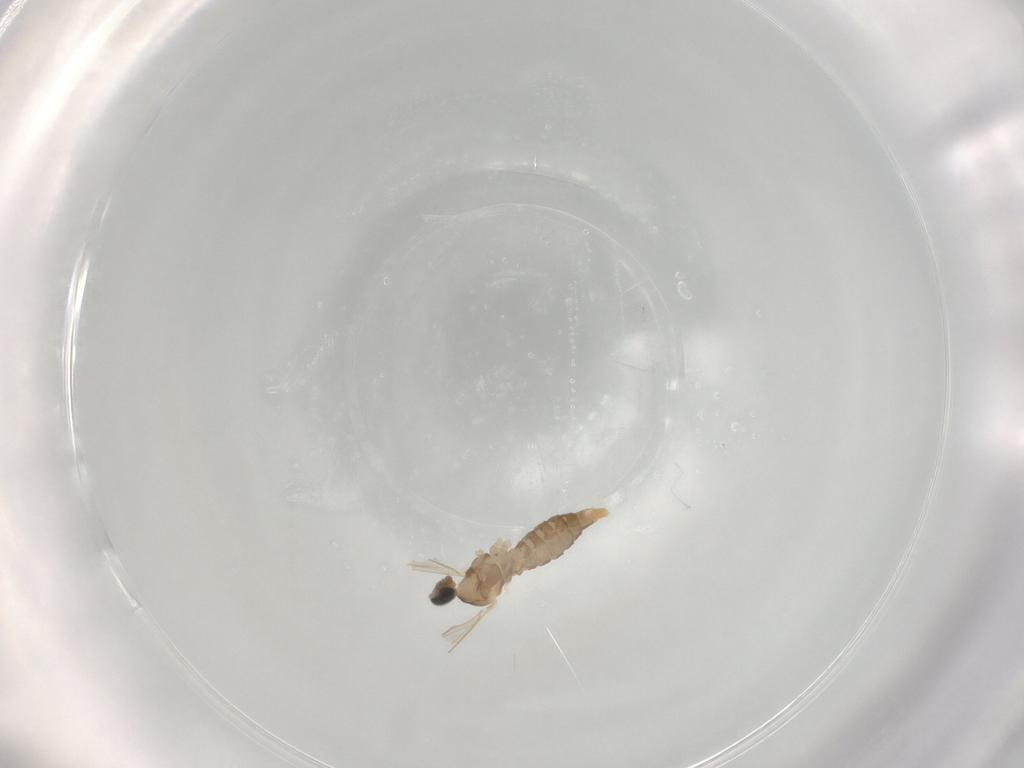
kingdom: Animalia
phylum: Arthropoda
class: Insecta
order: Diptera
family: Cecidomyiidae
